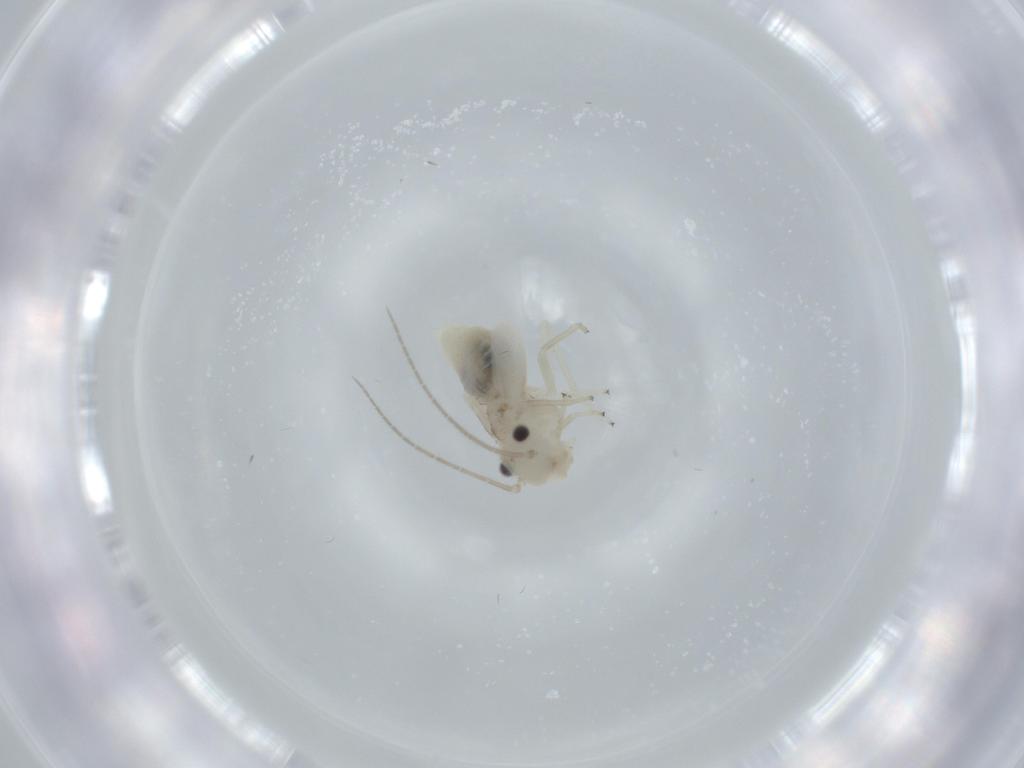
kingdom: Animalia
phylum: Arthropoda
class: Insecta
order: Psocodea
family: Caeciliusidae
